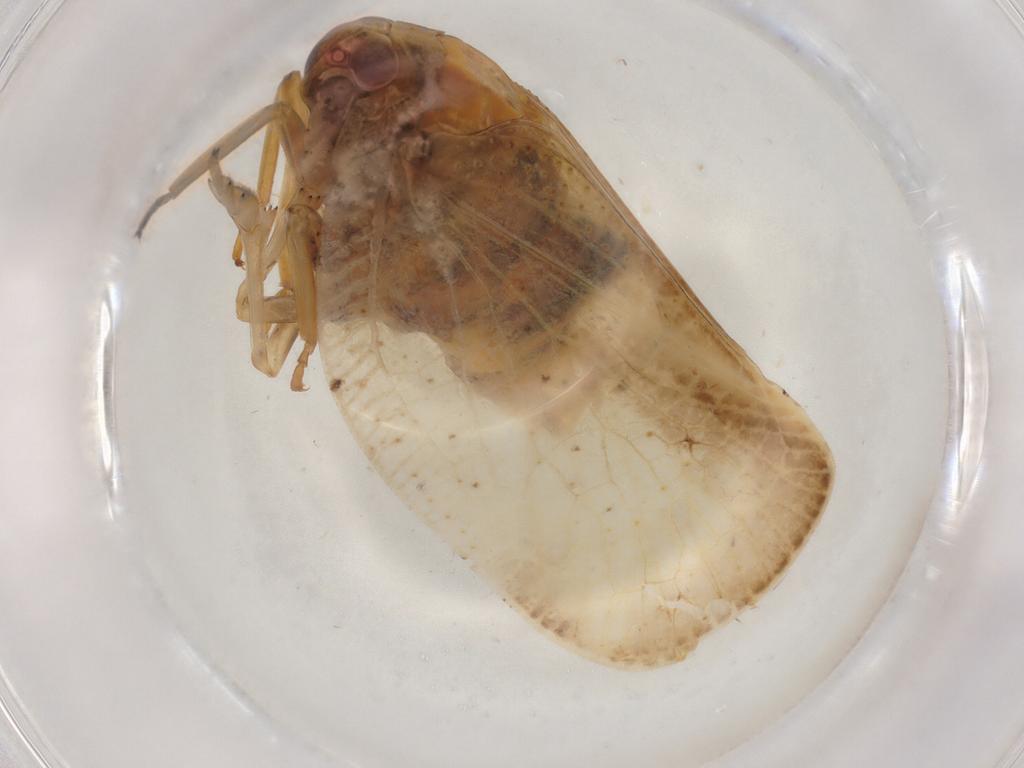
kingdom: Animalia
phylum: Arthropoda
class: Insecta
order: Hemiptera
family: Flatidae
